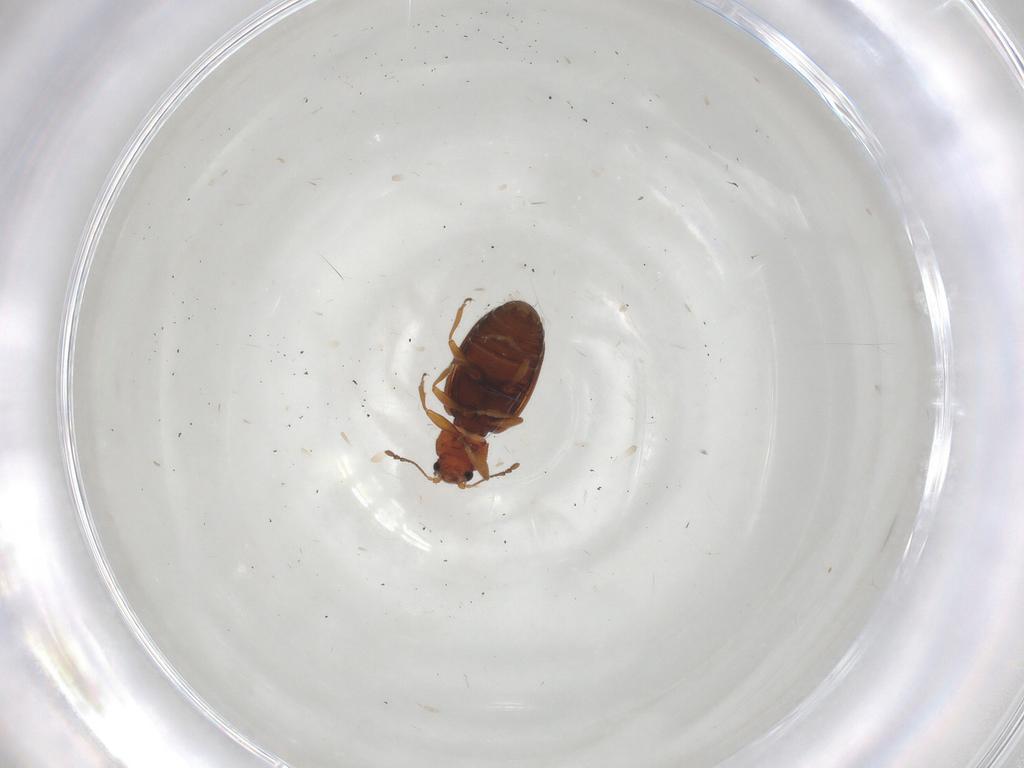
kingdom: Animalia
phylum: Arthropoda
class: Insecta
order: Coleoptera
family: Latridiidae
